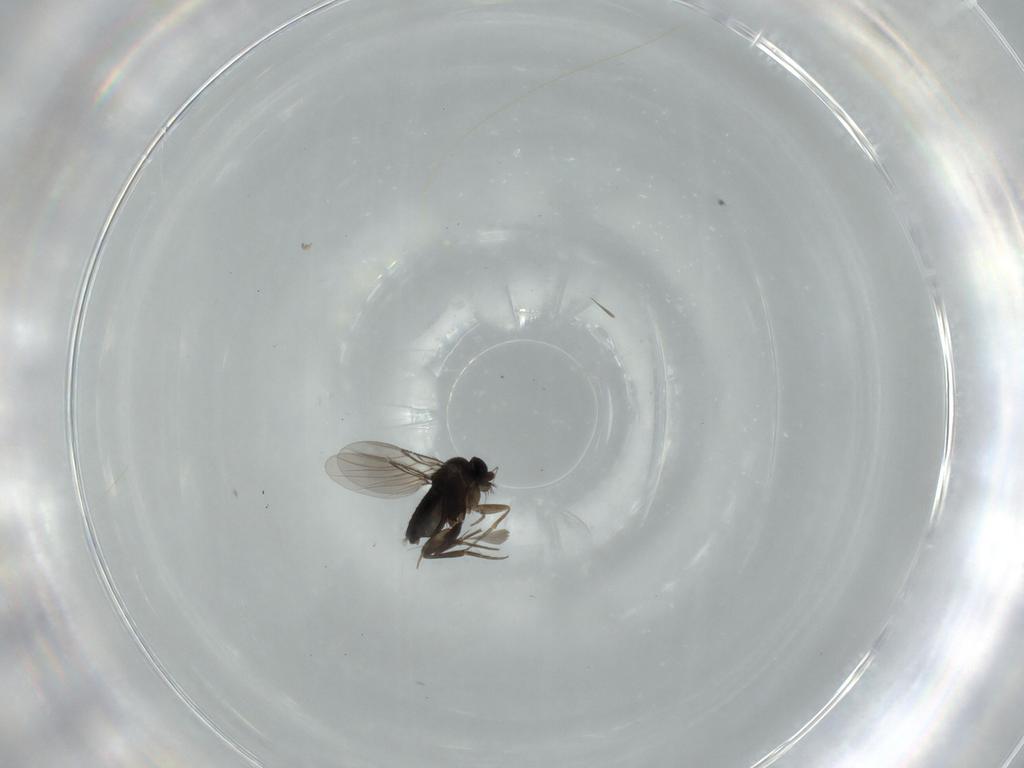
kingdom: Animalia
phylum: Arthropoda
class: Insecta
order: Diptera
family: Phoridae
